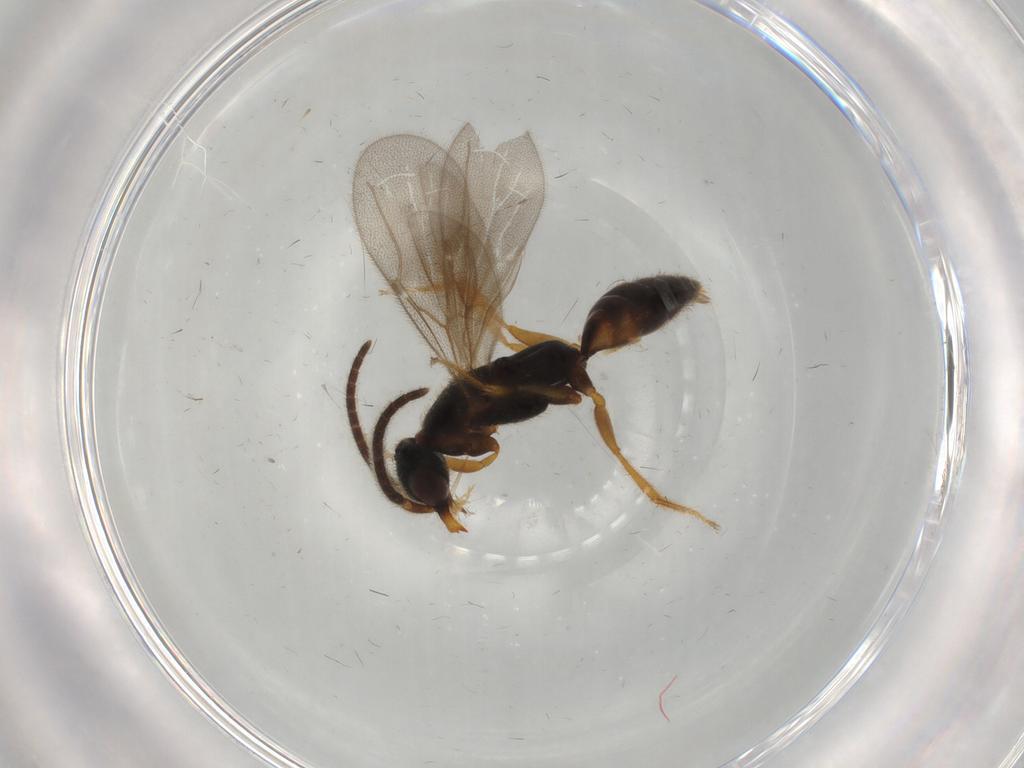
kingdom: Animalia
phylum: Arthropoda
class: Insecta
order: Hymenoptera
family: Bethylidae
